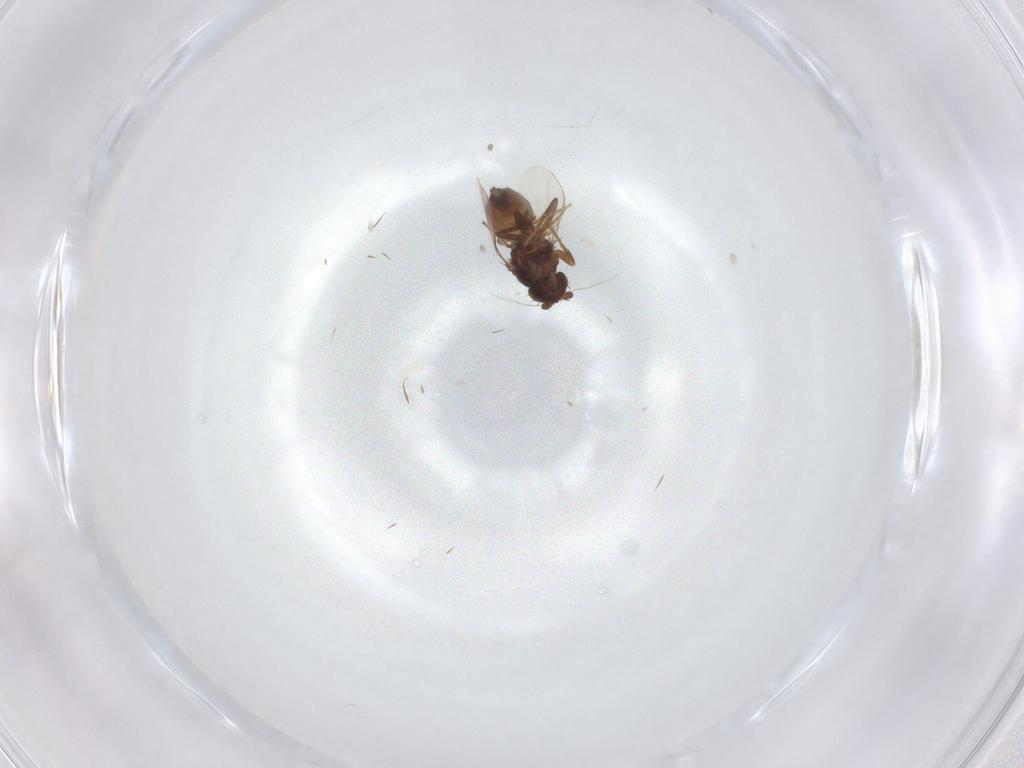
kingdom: Animalia
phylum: Arthropoda
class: Insecta
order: Diptera
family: Sphaeroceridae
